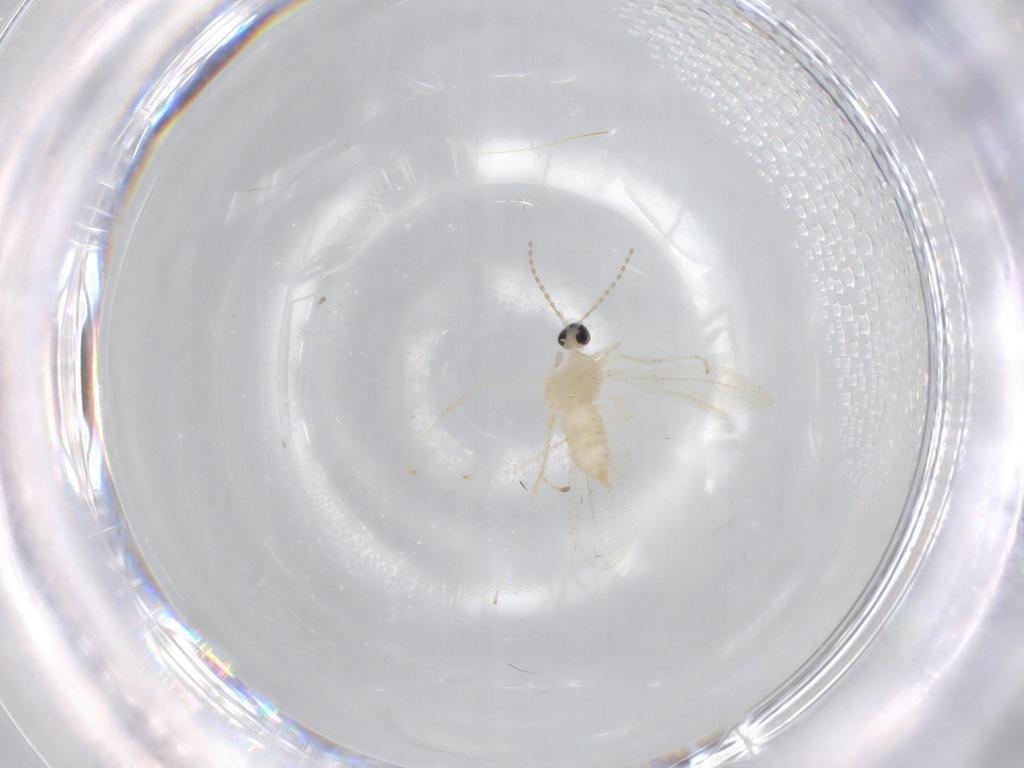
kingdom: Animalia
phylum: Arthropoda
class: Insecta
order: Diptera
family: Cecidomyiidae
